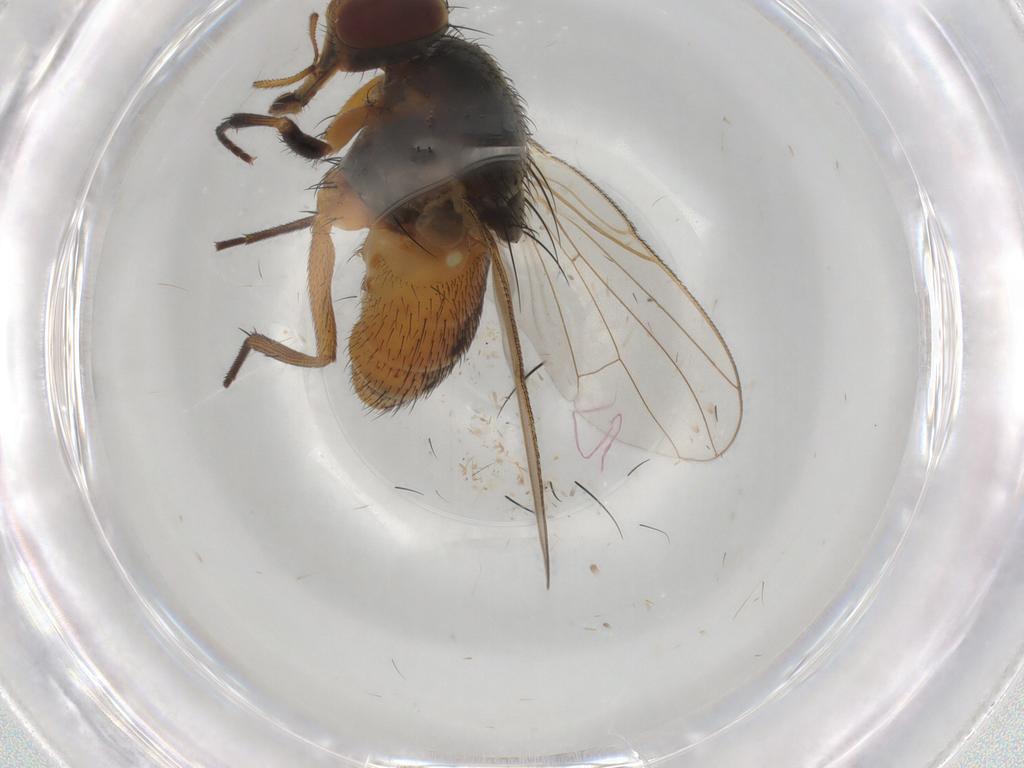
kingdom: Animalia
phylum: Arthropoda
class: Insecta
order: Diptera
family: Muscidae
